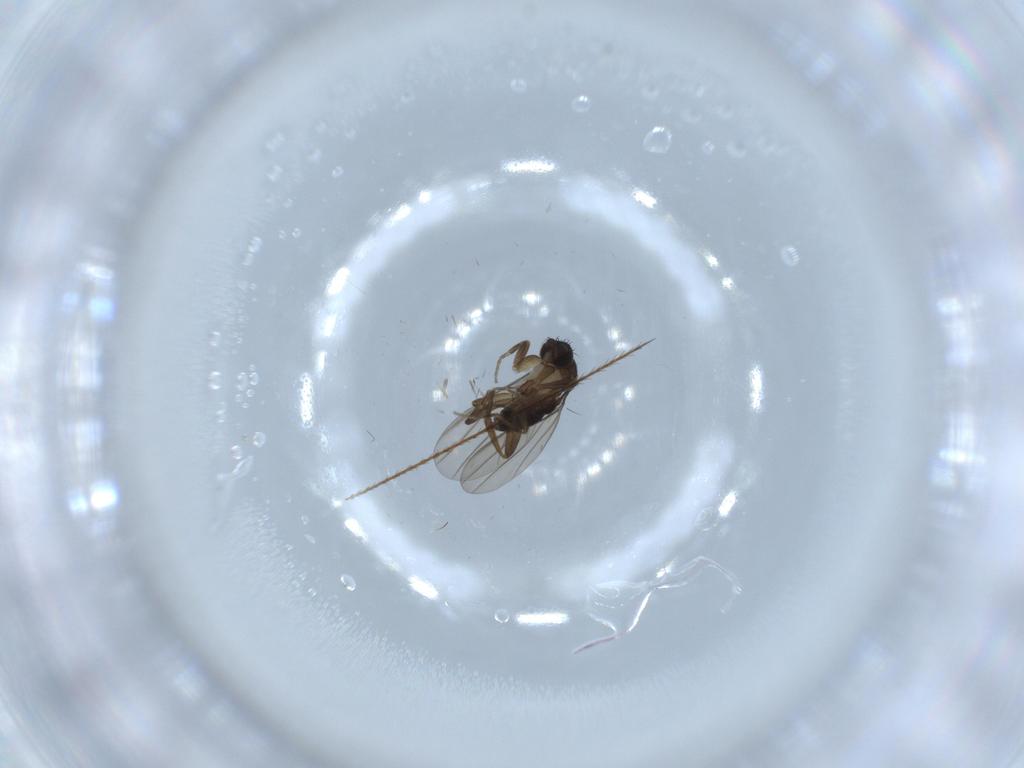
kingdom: Animalia
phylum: Arthropoda
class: Insecta
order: Diptera
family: Phoridae
